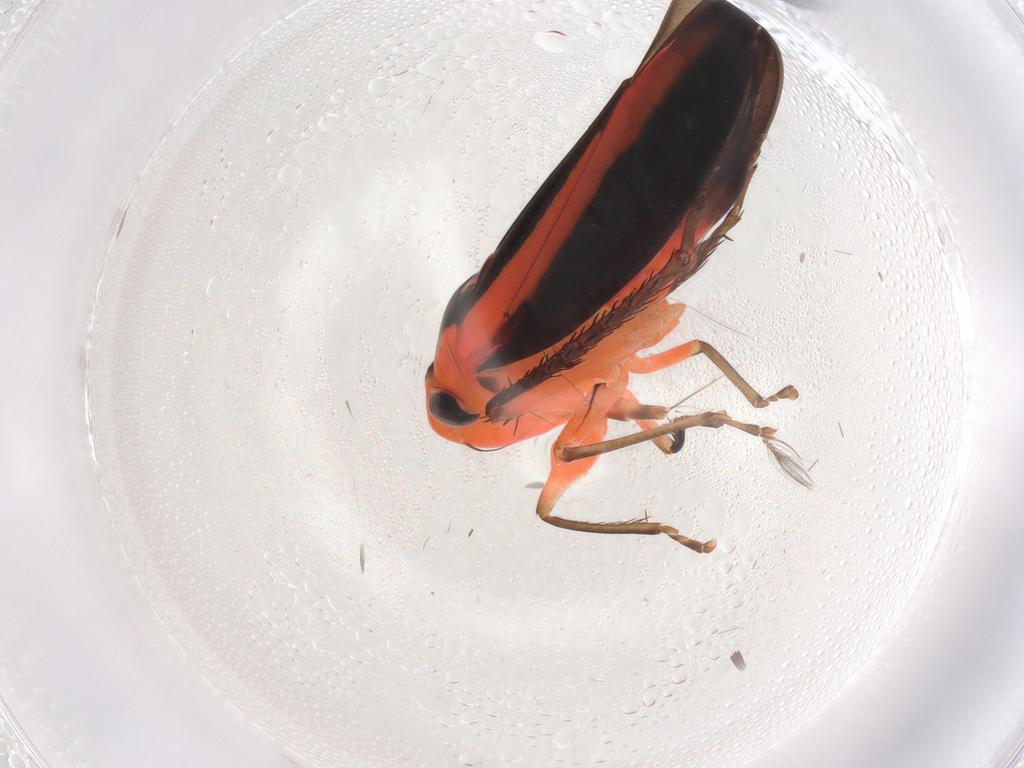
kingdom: Animalia
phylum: Arthropoda
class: Insecta
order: Hemiptera
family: Cicadellidae
